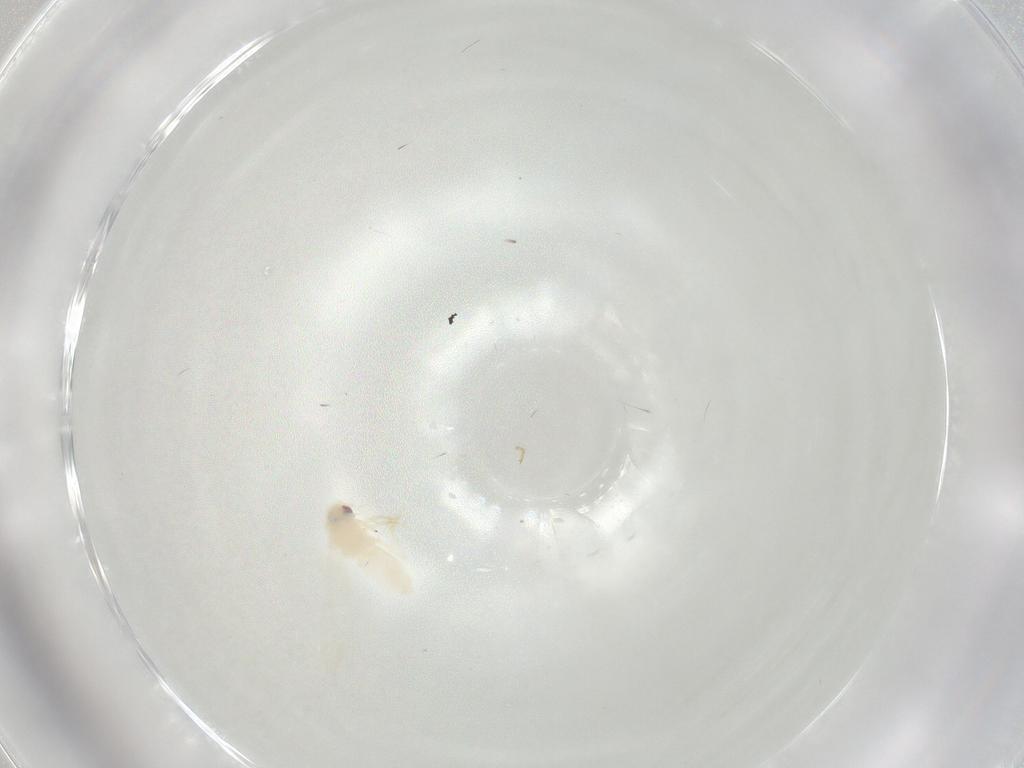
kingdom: Animalia
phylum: Arthropoda
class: Insecta
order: Hemiptera
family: Aleyrodidae
